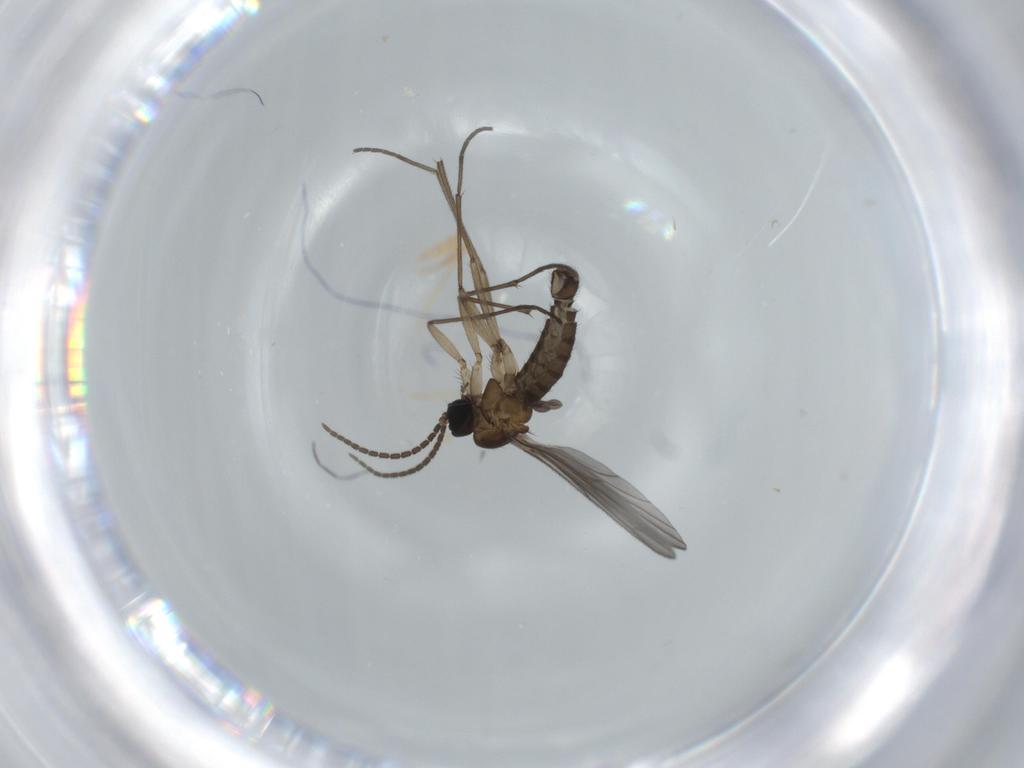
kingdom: Animalia
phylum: Arthropoda
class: Insecta
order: Diptera
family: Sciaridae
